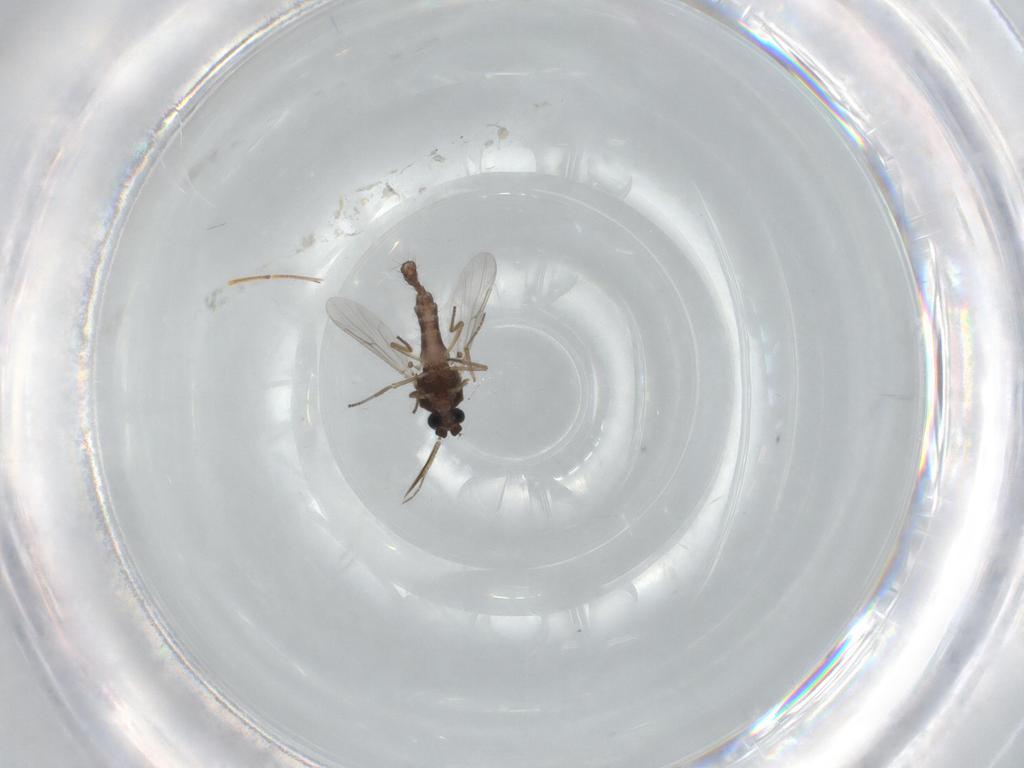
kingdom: Animalia
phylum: Arthropoda
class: Insecta
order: Diptera
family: Ceratopogonidae
